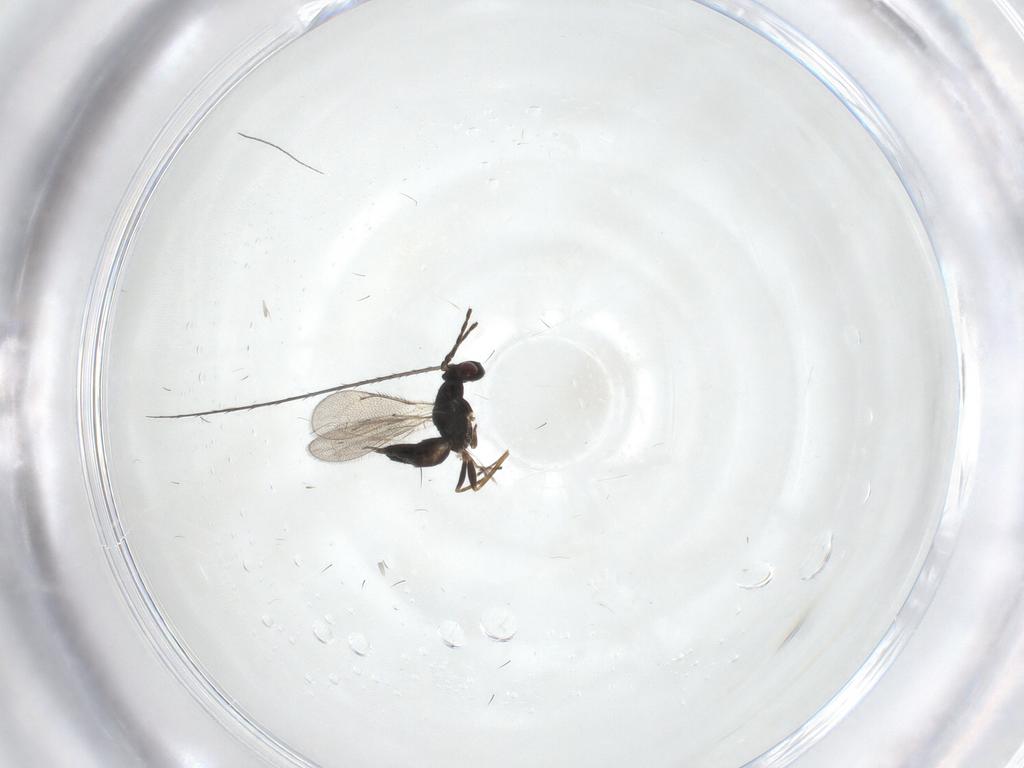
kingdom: Animalia
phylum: Arthropoda
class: Insecta
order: Hymenoptera
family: Eulophidae
